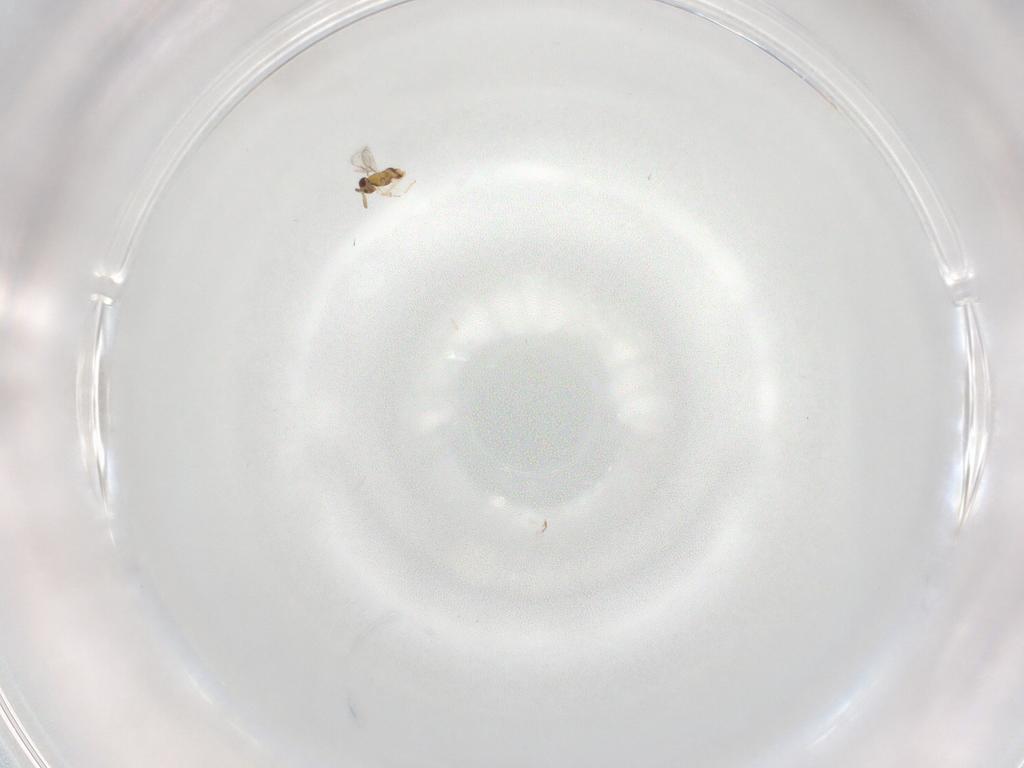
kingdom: Animalia
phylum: Arthropoda
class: Insecta
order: Hymenoptera
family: Aphelinidae
